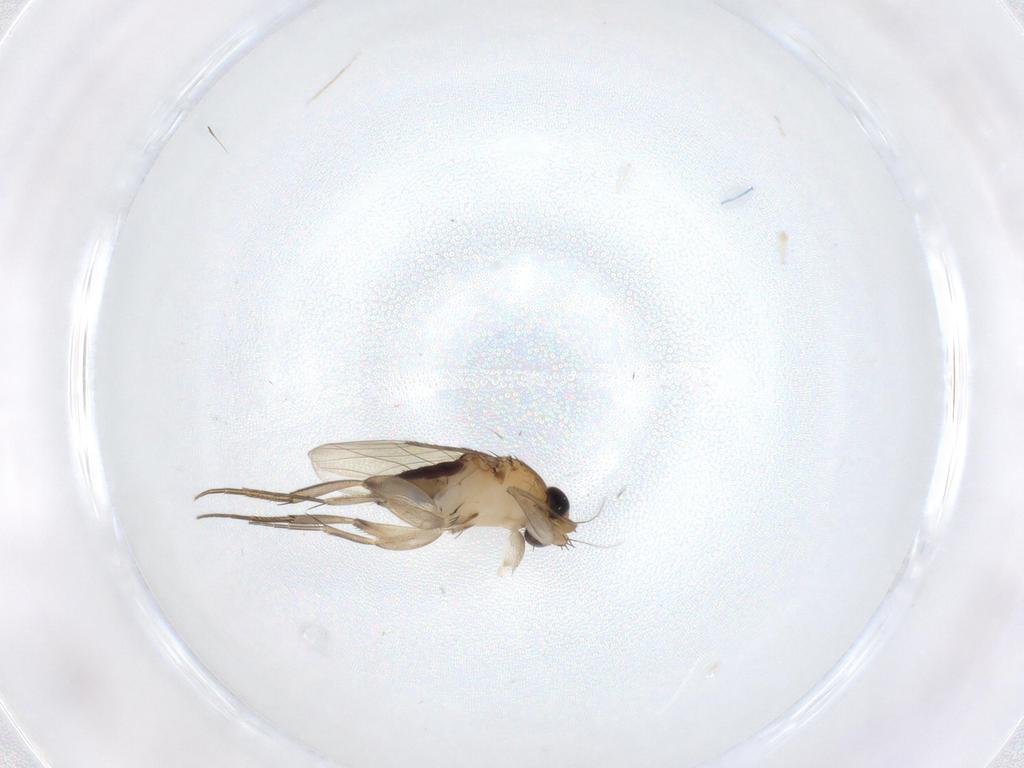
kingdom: Animalia
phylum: Arthropoda
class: Insecta
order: Diptera
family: Phoridae
